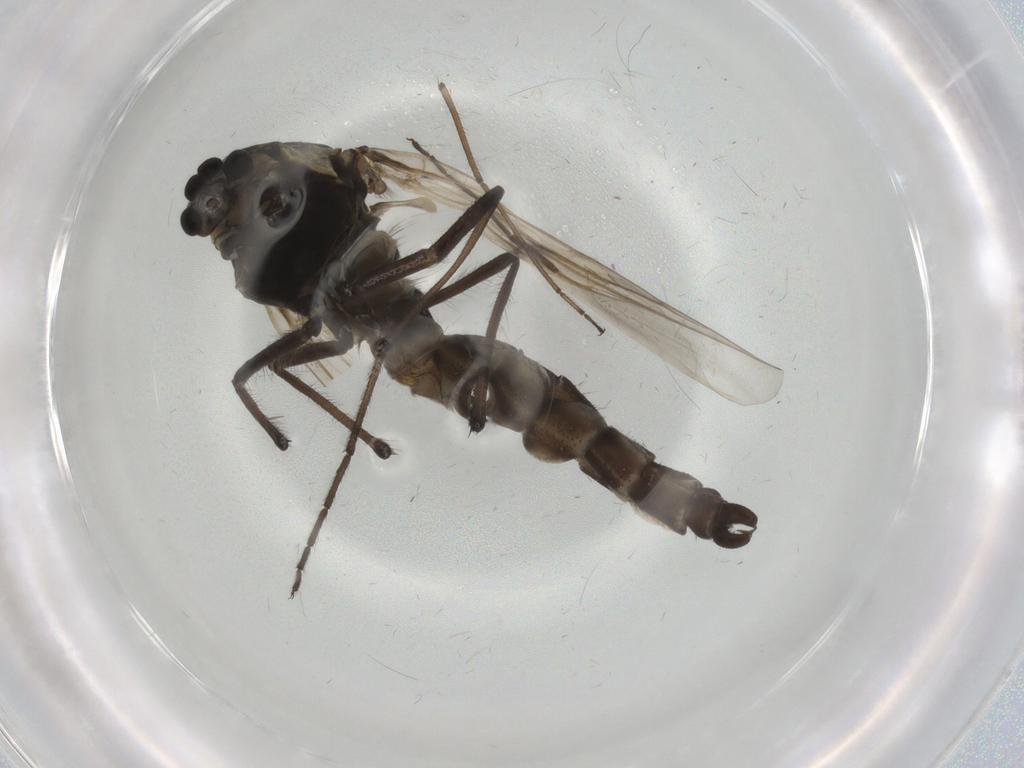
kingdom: Animalia
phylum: Arthropoda
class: Insecta
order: Diptera
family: Chironomidae
